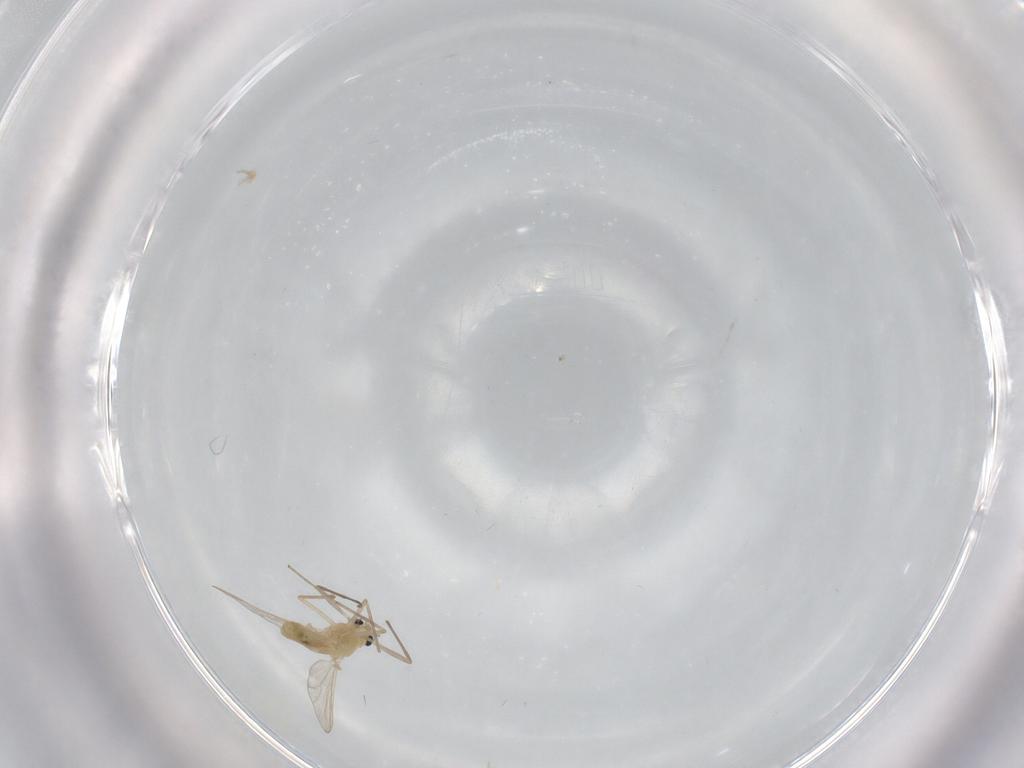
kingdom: Animalia
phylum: Arthropoda
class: Insecta
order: Diptera
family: Chironomidae
